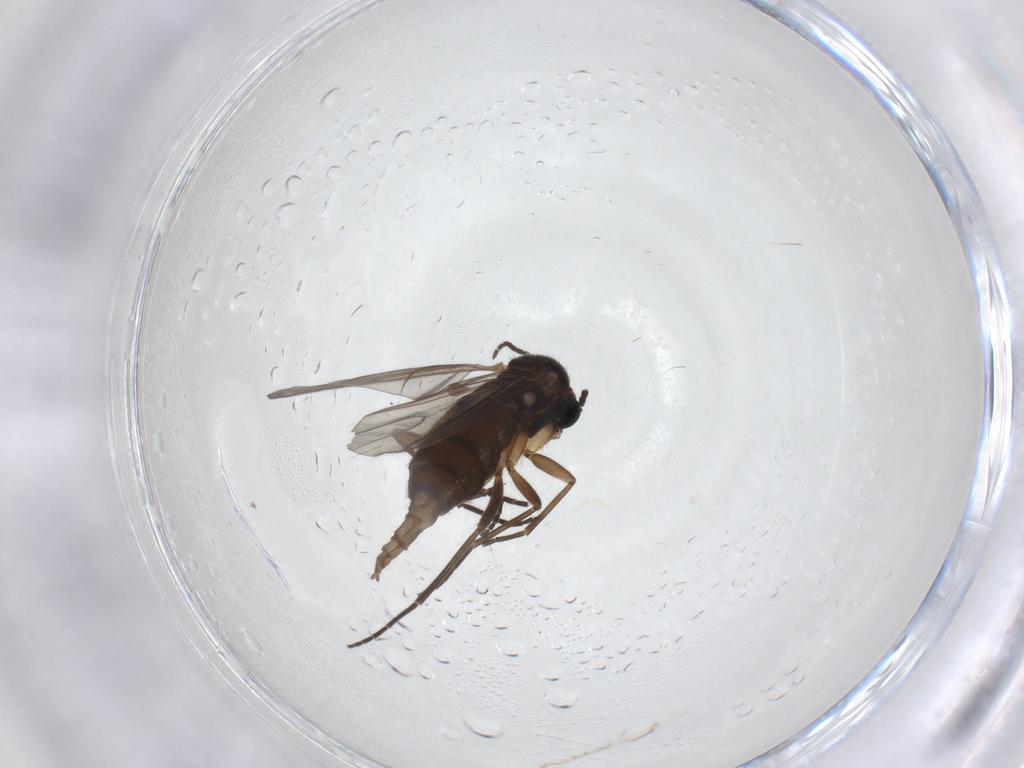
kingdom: Animalia
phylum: Arthropoda
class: Insecta
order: Diptera
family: Sciaridae
